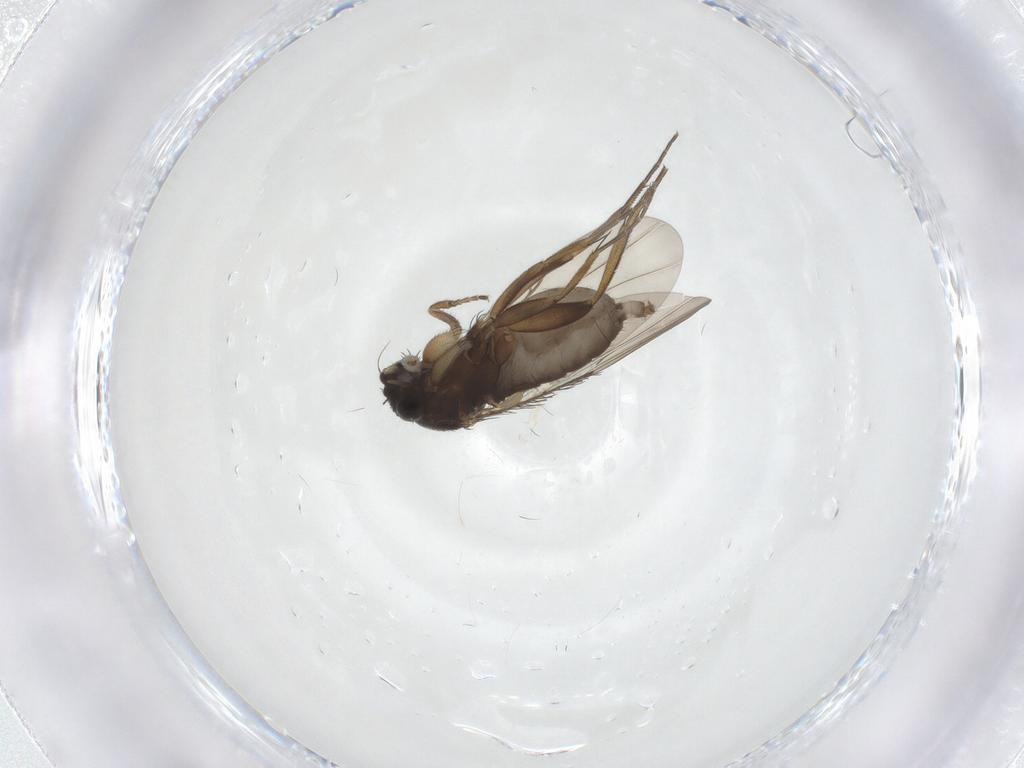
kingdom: Animalia
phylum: Arthropoda
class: Insecta
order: Diptera
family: Phoridae
